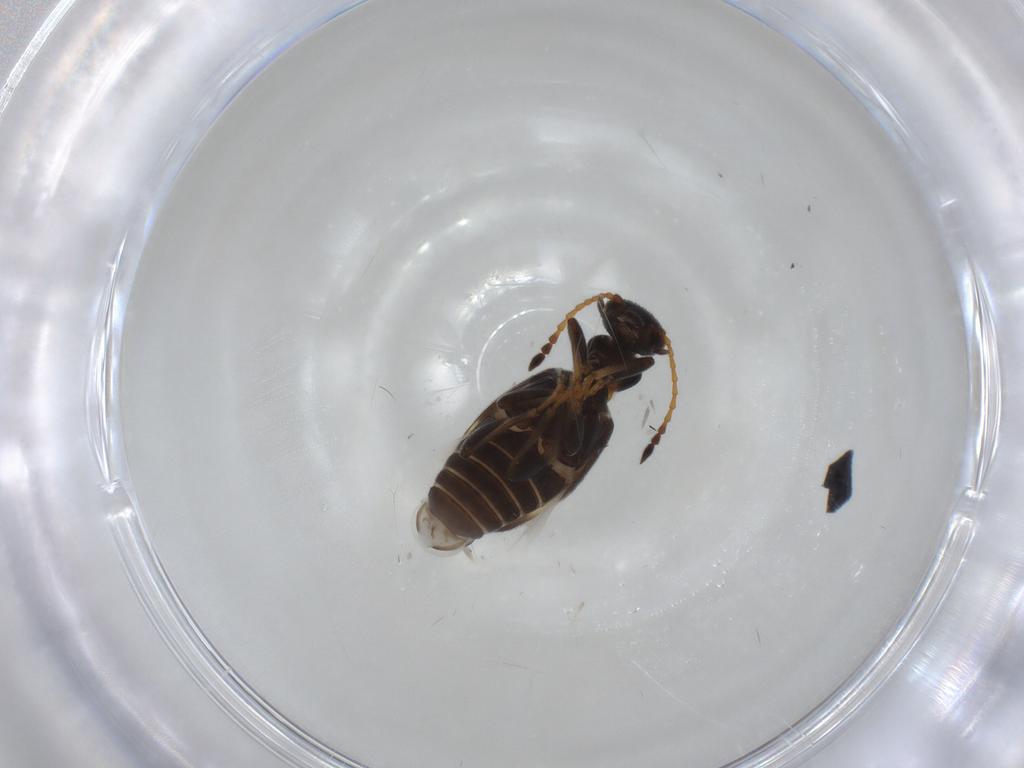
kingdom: Animalia
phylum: Arthropoda
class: Insecta
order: Coleoptera
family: Anthicidae
